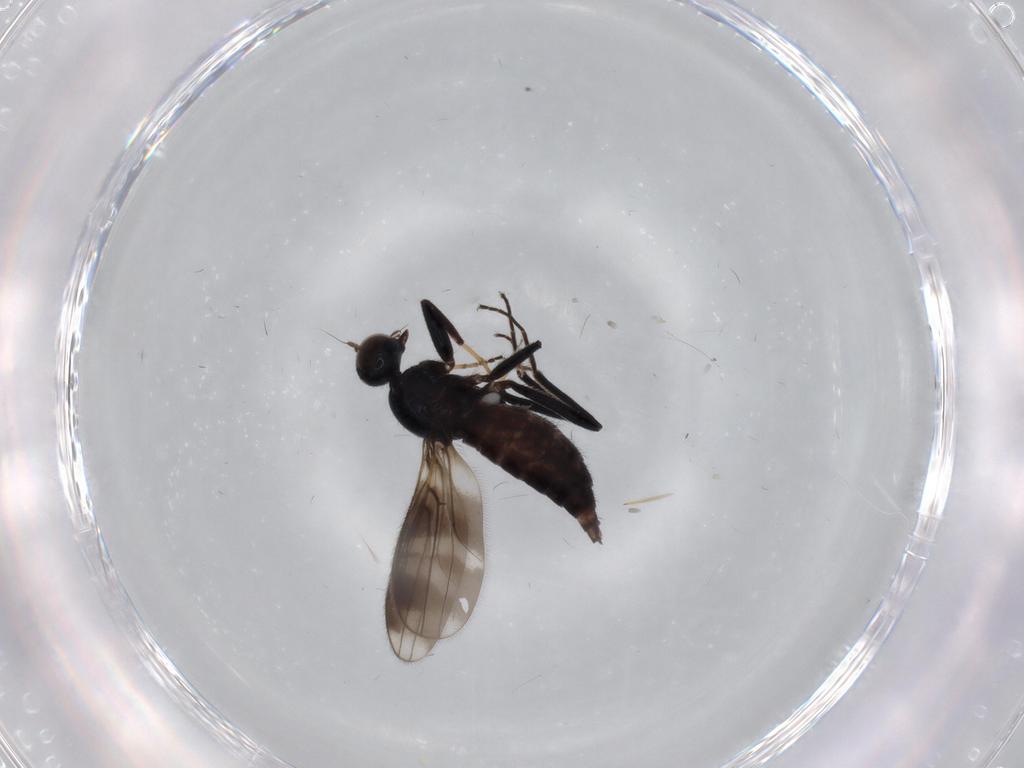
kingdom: Animalia
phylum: Arthropoda
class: Insecta
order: Diptera
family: Hybotidae
